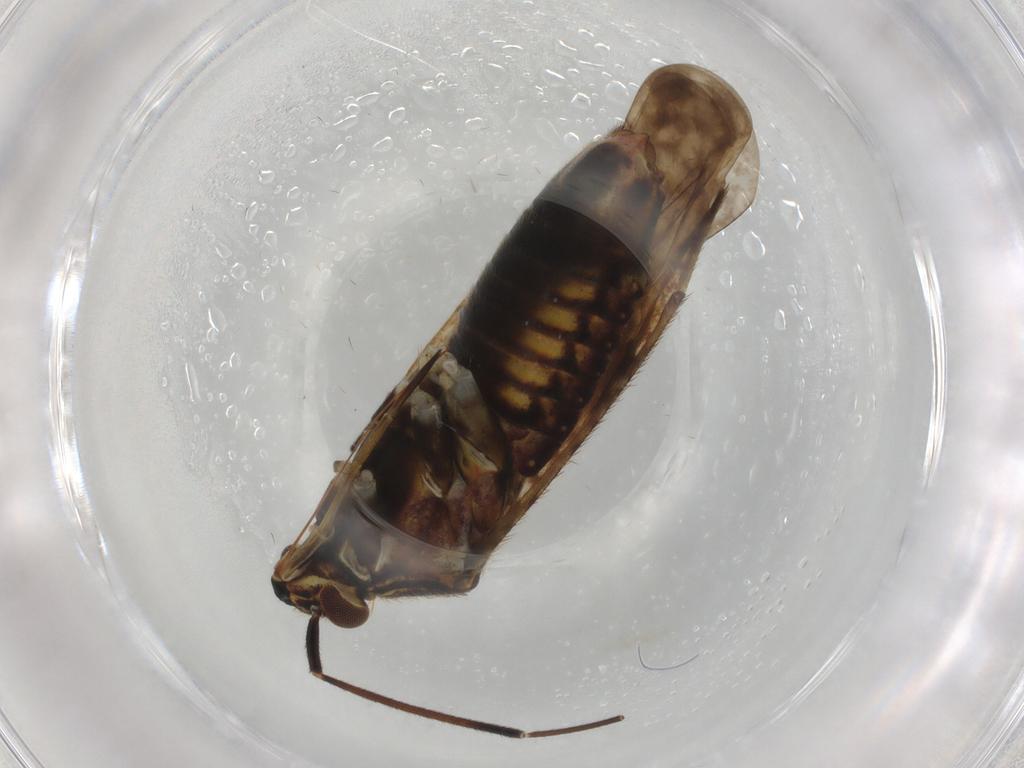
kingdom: Animalia
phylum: Arthropoda
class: Insecta
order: Hemiptera
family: Miridae
